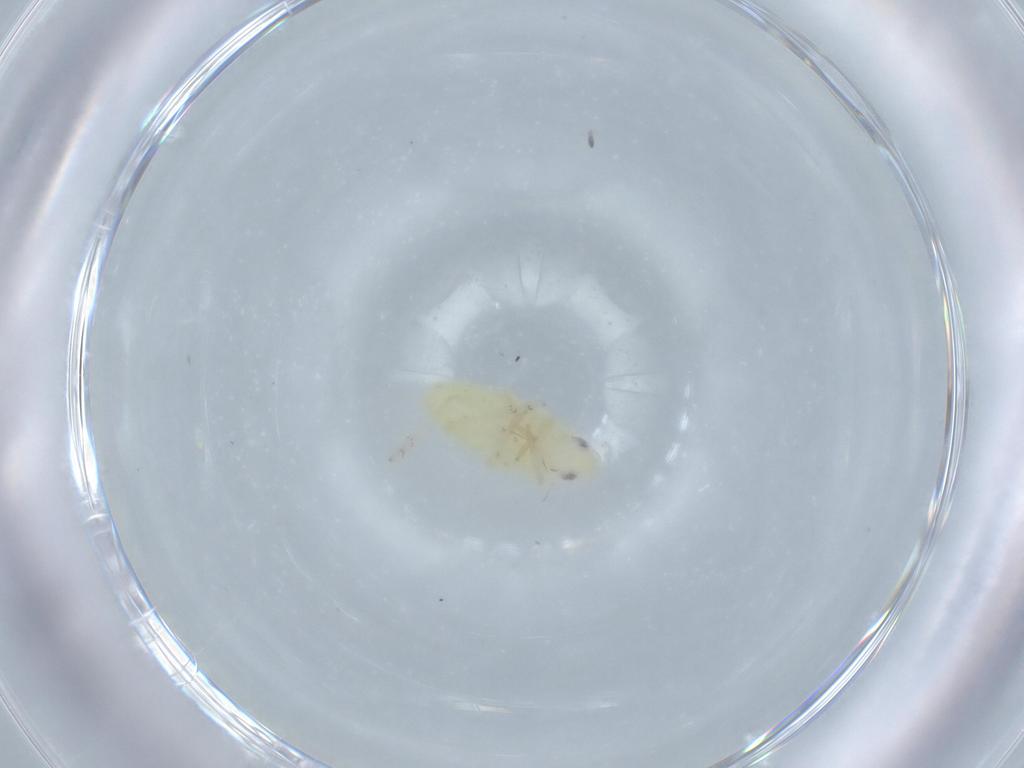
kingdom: Animalia
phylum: Arthropoda
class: Insecta
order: Hemiptera
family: Fulgoroidea_incertae_sedis
